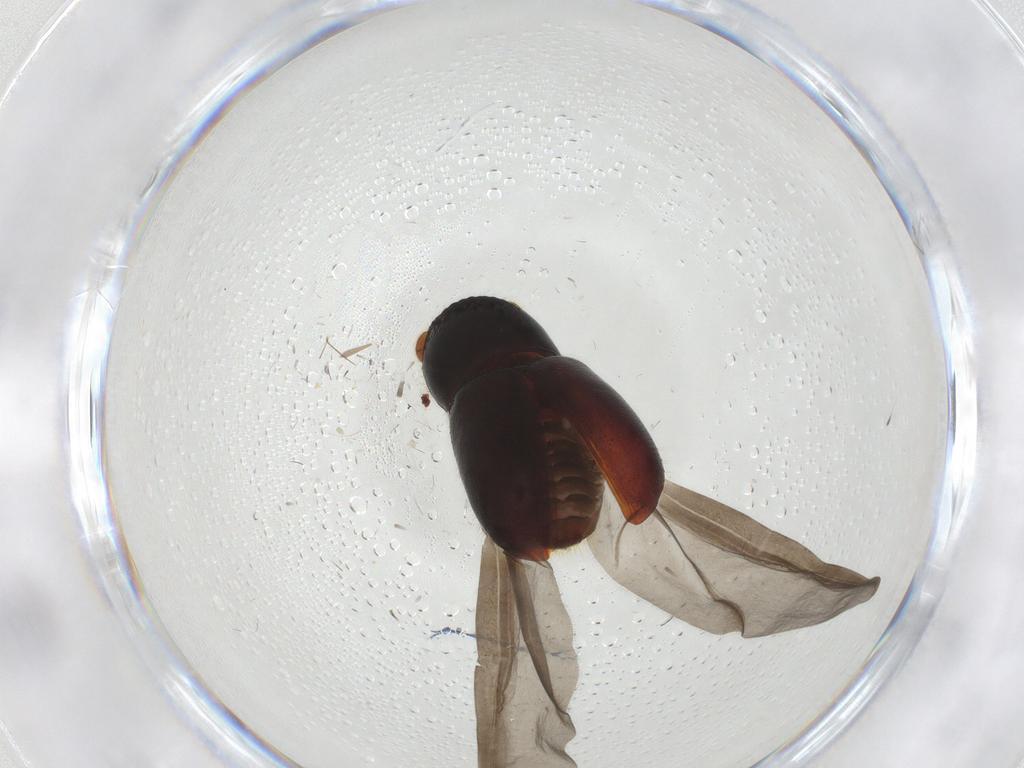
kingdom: Animalia
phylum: Arthropoda
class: Insecta
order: Coleoptera
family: Curculionidae
